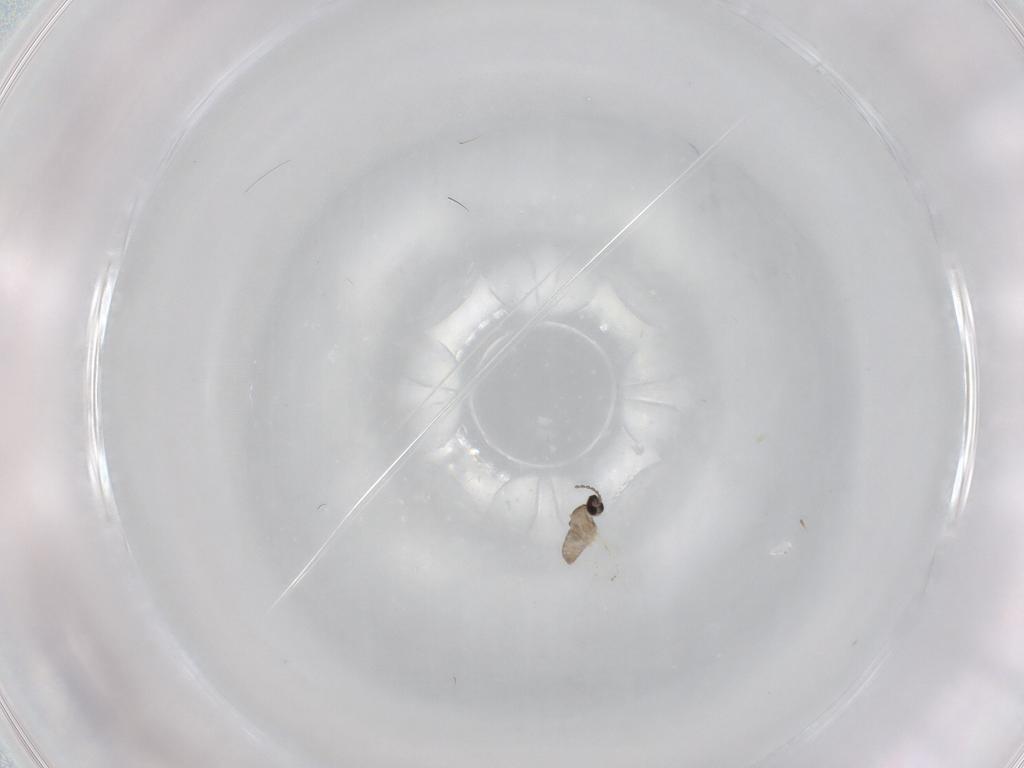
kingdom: Animalia
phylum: Arthropoda
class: Insecta
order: Diptera
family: Cecidomyiidae
